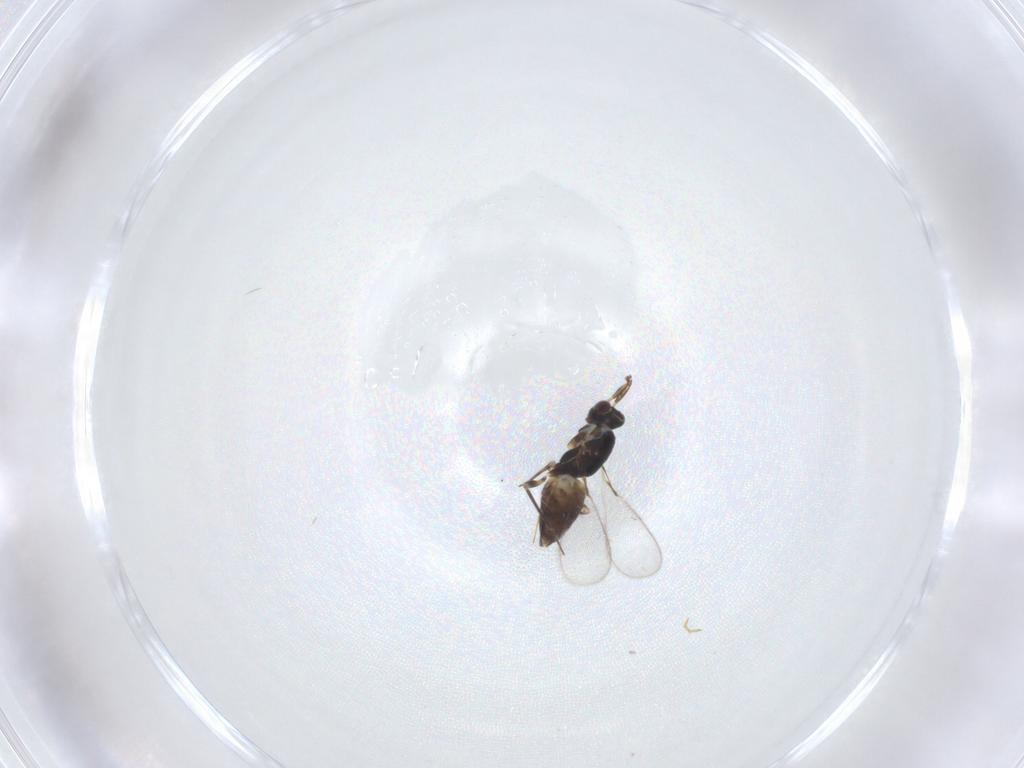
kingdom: Animalia
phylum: Arthropoda
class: Insecta
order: Hymenoptera
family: Mymaridae
